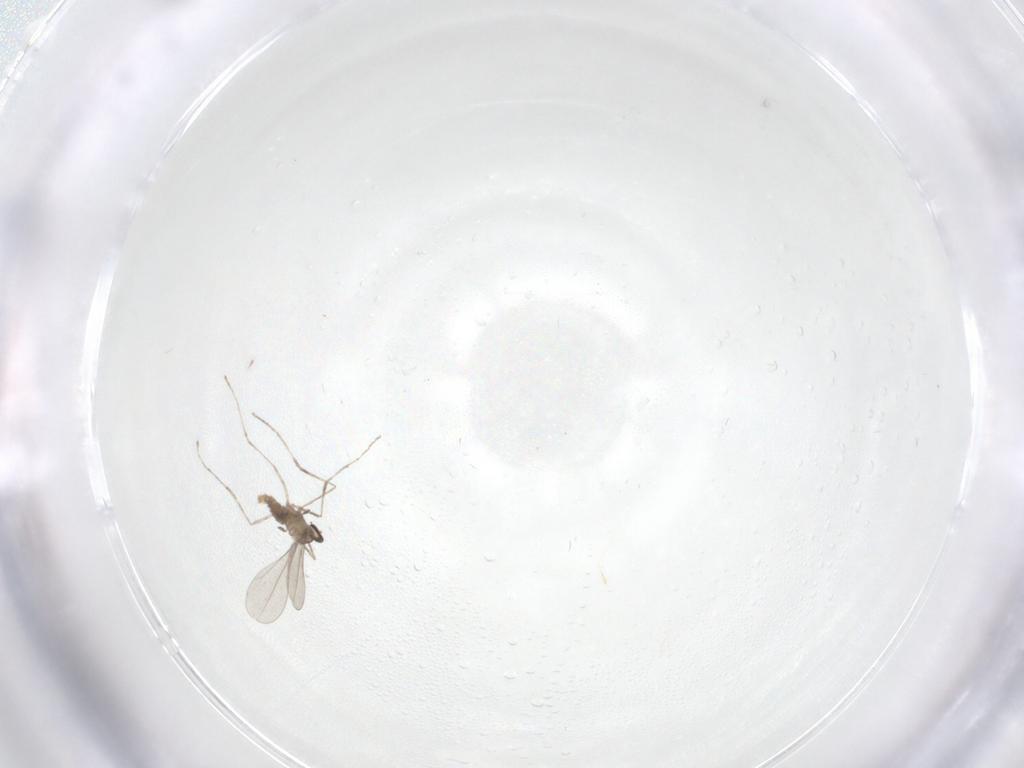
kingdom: Animalia
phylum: Arthropoda
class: Insecta
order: Diptera
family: Cecidomyiidae
